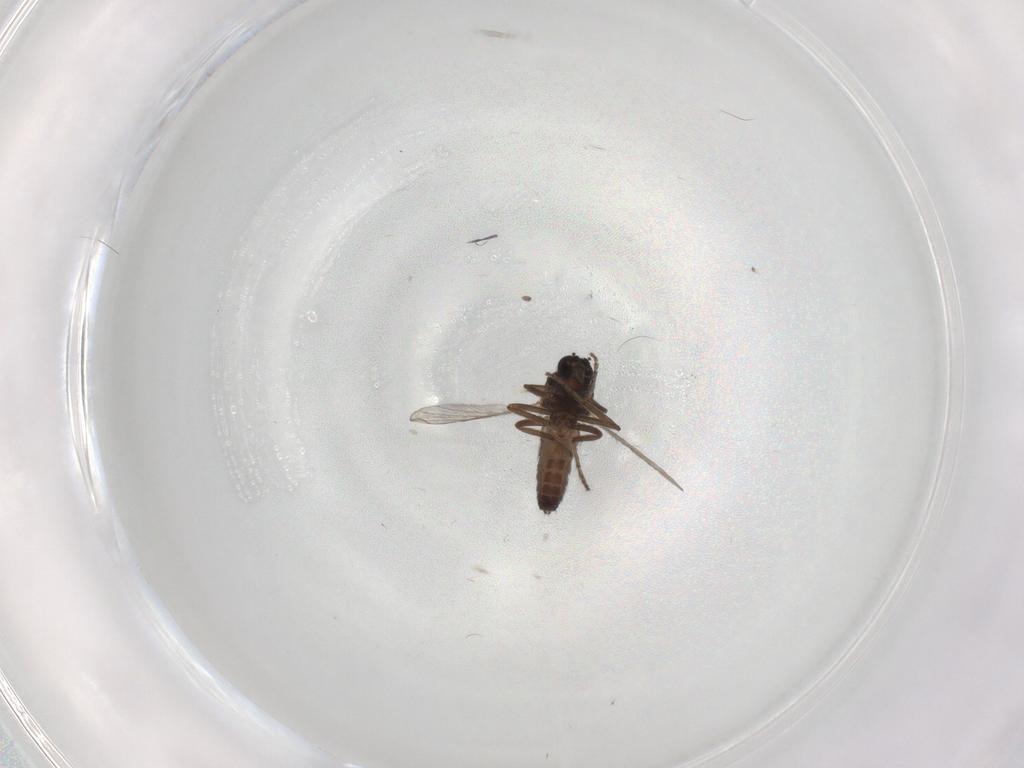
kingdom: Animalia
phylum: Arthropoda
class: Insecta
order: Diptera
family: Ceratopogonidae
